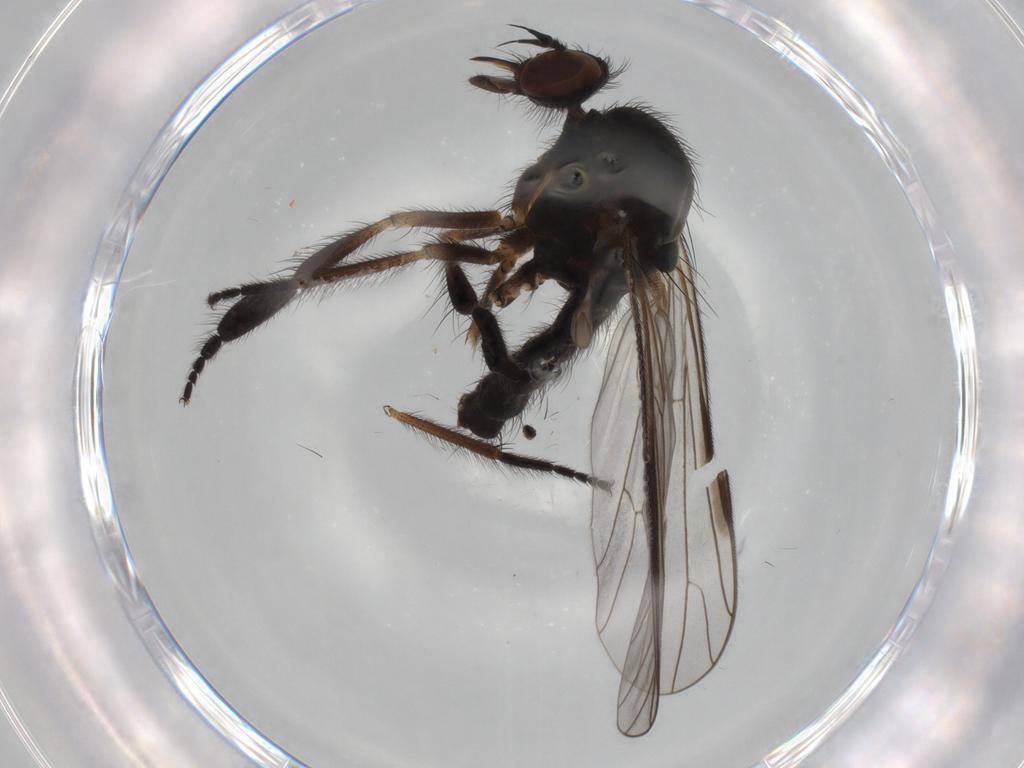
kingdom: Animalia
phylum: Arthropoda
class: Insecta
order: Diptera
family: Empididae
